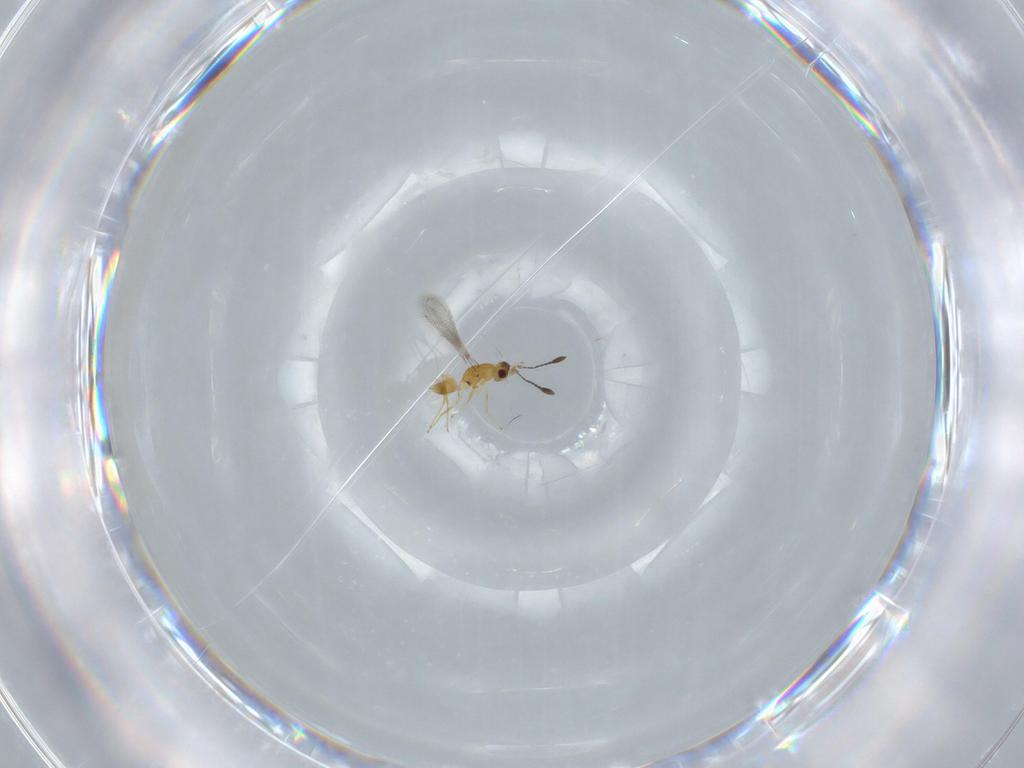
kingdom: Animalia
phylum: Arthropoda
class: Insecta
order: Hymenoptera
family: Mymaridae
